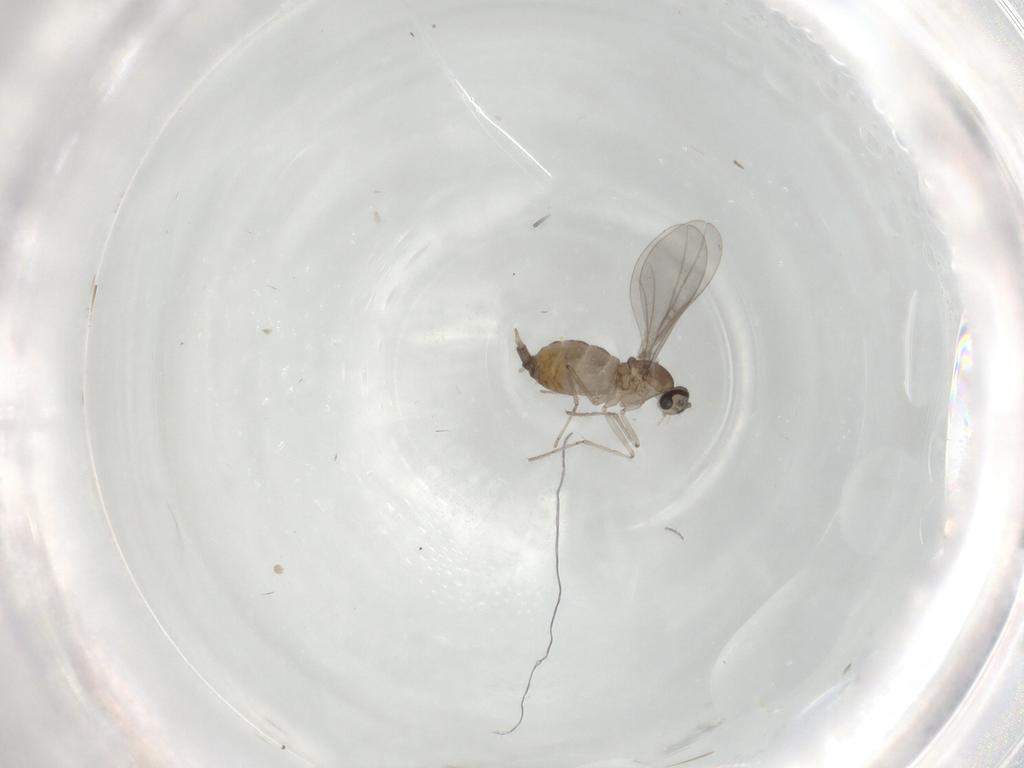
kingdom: Animalia
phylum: Arthropoda
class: Insecta
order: Diptera
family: Cecidomyiidae
